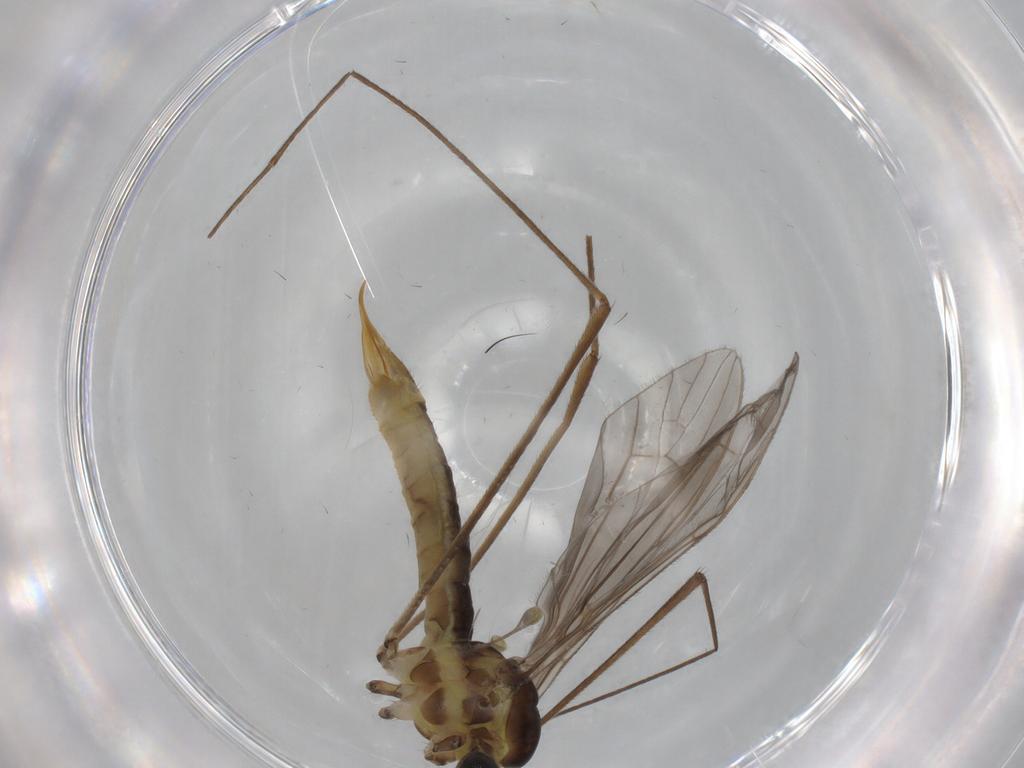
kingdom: Animalia
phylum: Arthropoda
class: Insecta
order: Diptera
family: Limoniidae
